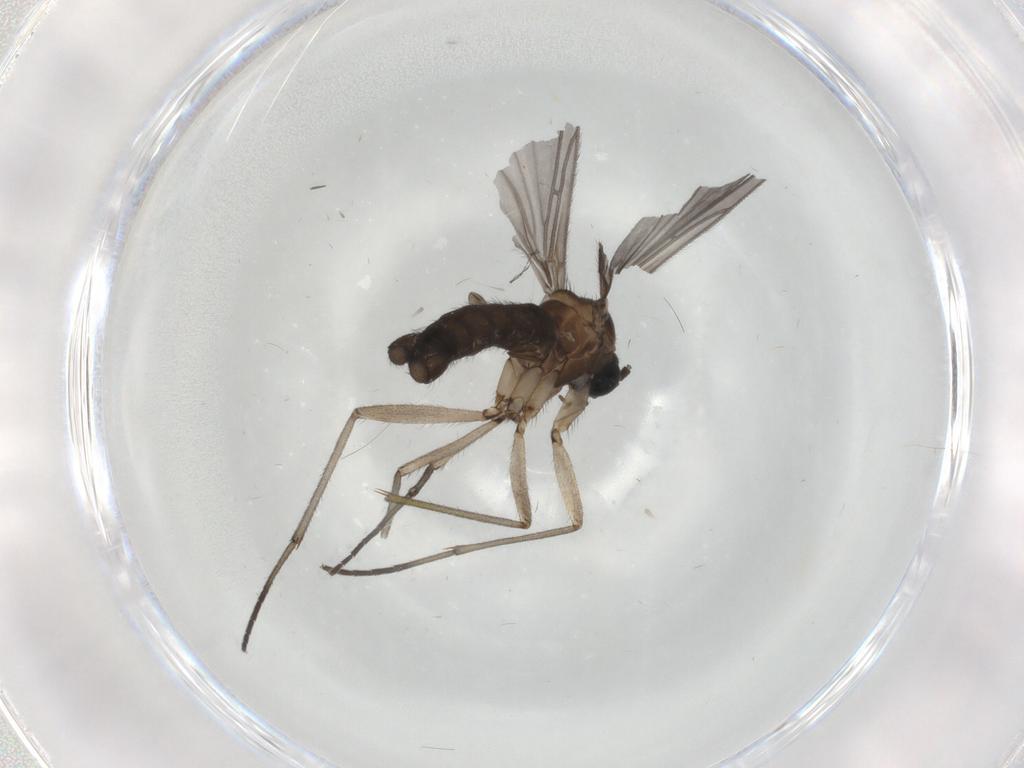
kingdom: Animalia
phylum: Arthropoda
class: Insecta
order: Diptera
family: Sciaridae
